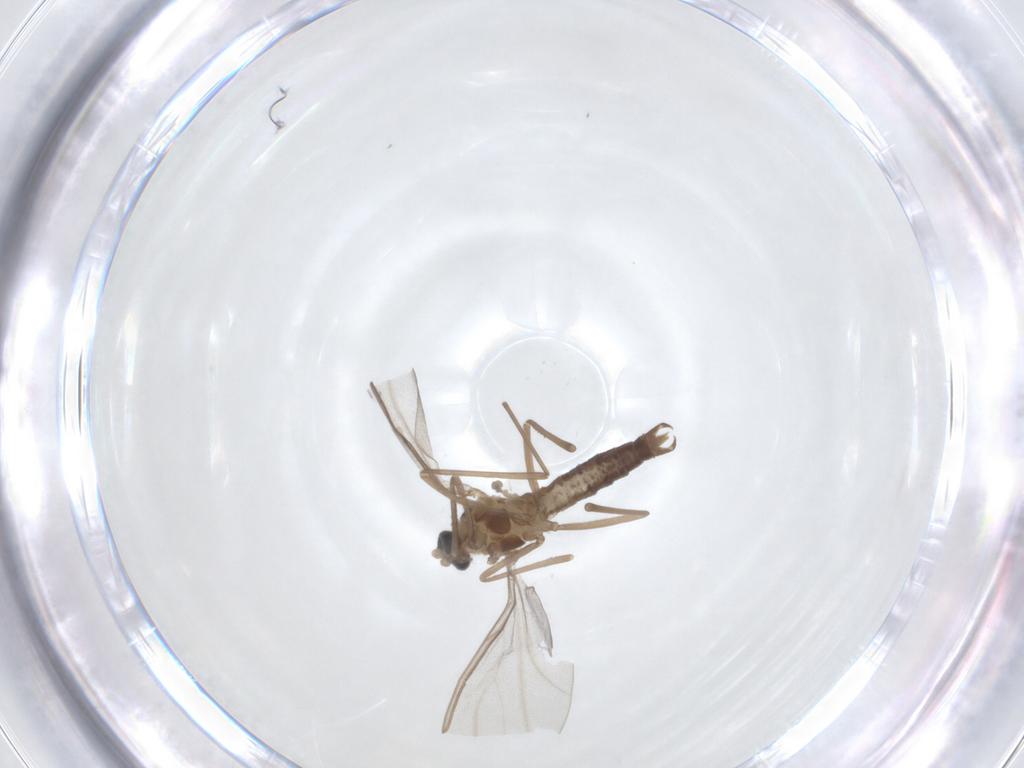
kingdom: Animalia
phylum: Arthropoda
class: Insecta
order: Diptera
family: Cecidomyiidae
